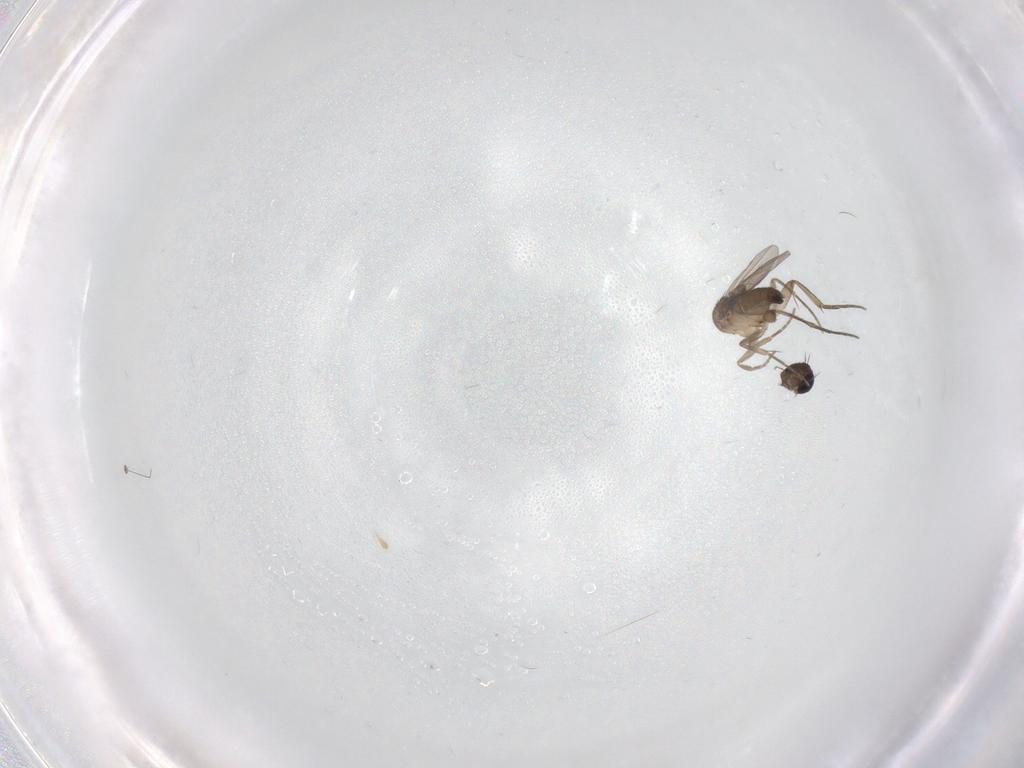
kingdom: Animalia
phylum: Arthropoda
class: Insecta
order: Diptera
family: Phoridae
